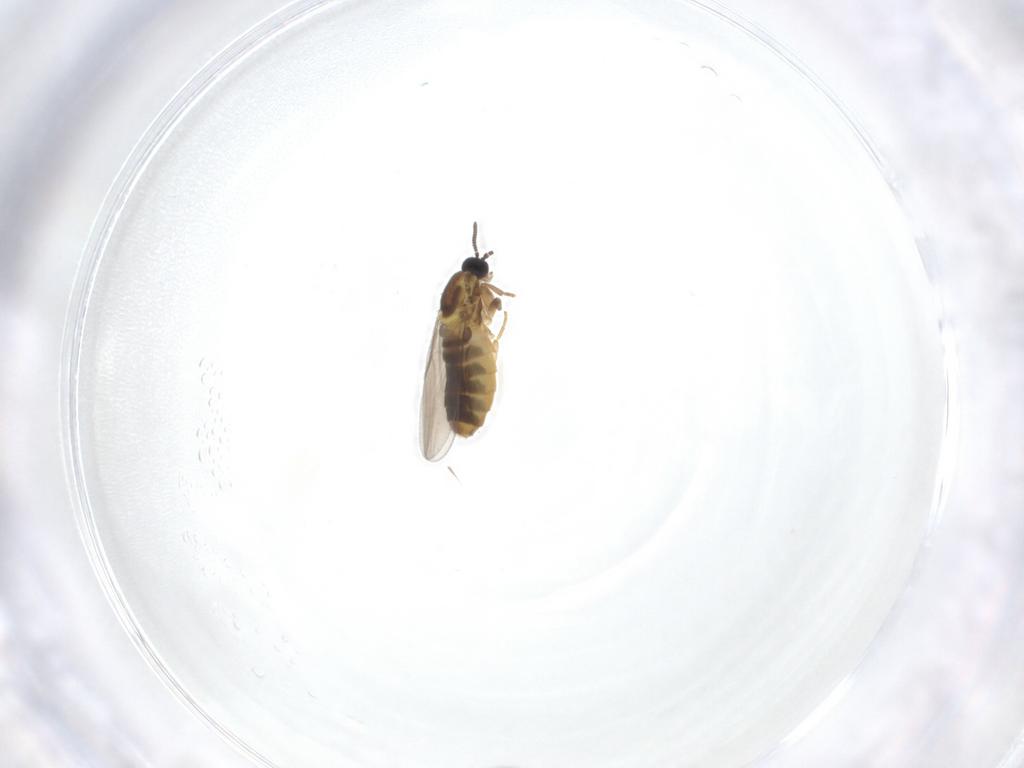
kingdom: Animalia
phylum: Arthropoda
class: Insecta
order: Diptera
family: Scatopsidae
